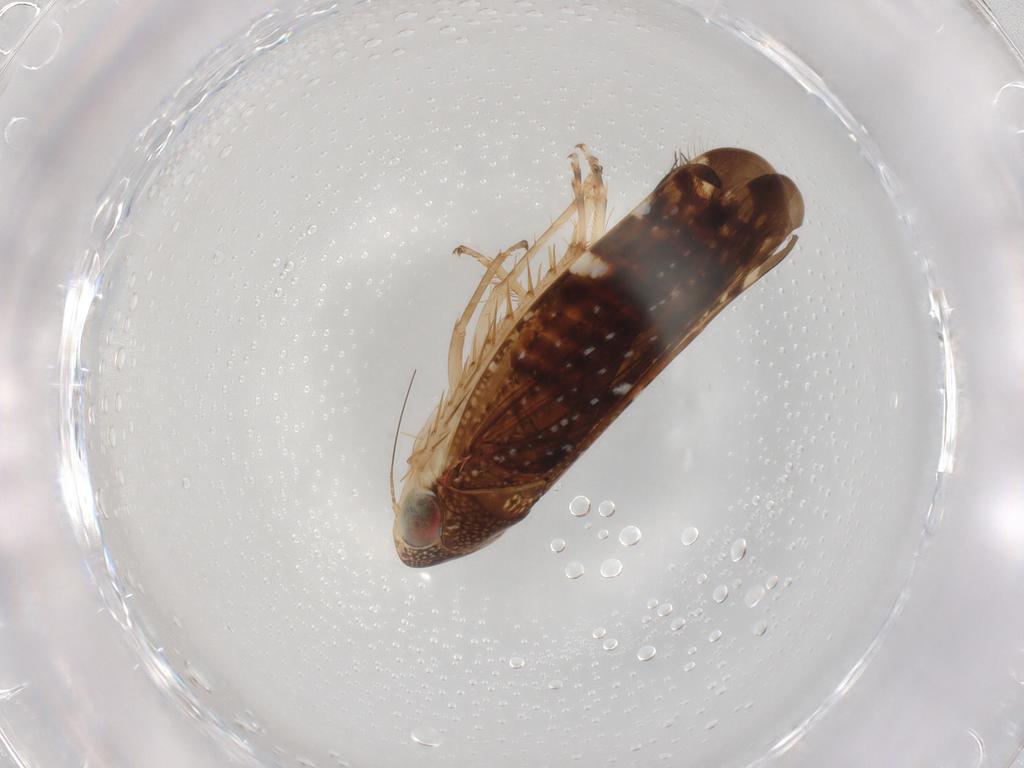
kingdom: Animalia
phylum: Arthropoda
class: Insecta
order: Hemiptera
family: Cicadellidae
